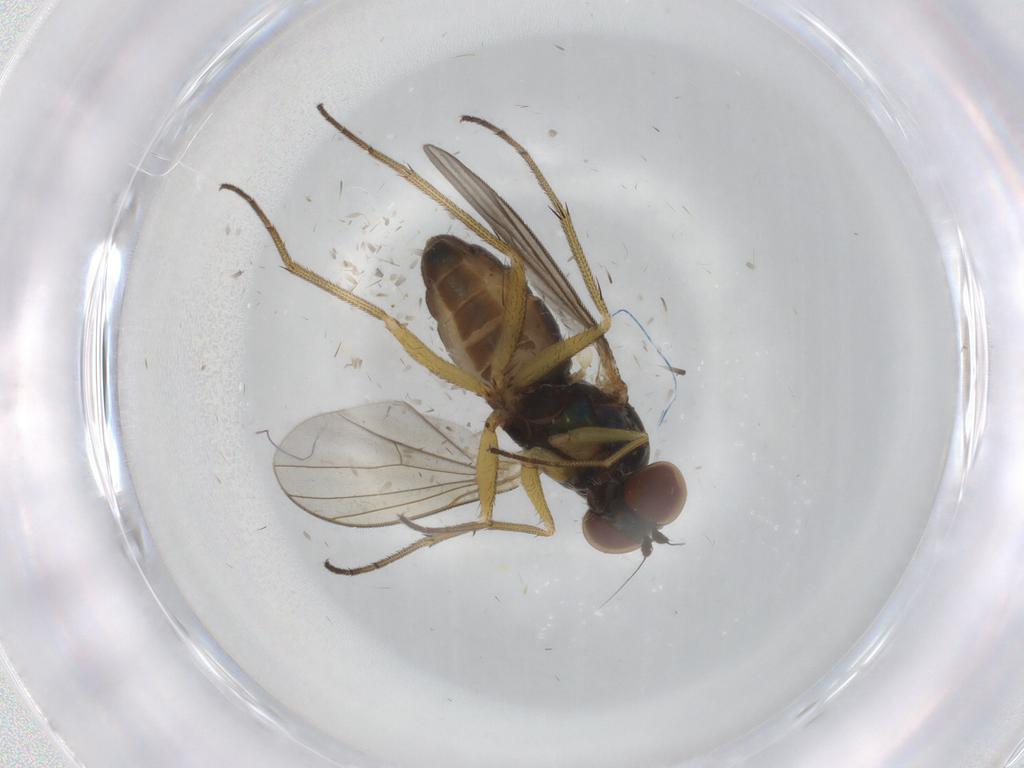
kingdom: Animalia
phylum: Arthropoda
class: Insecta
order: Diptera
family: Dolichopodidae
